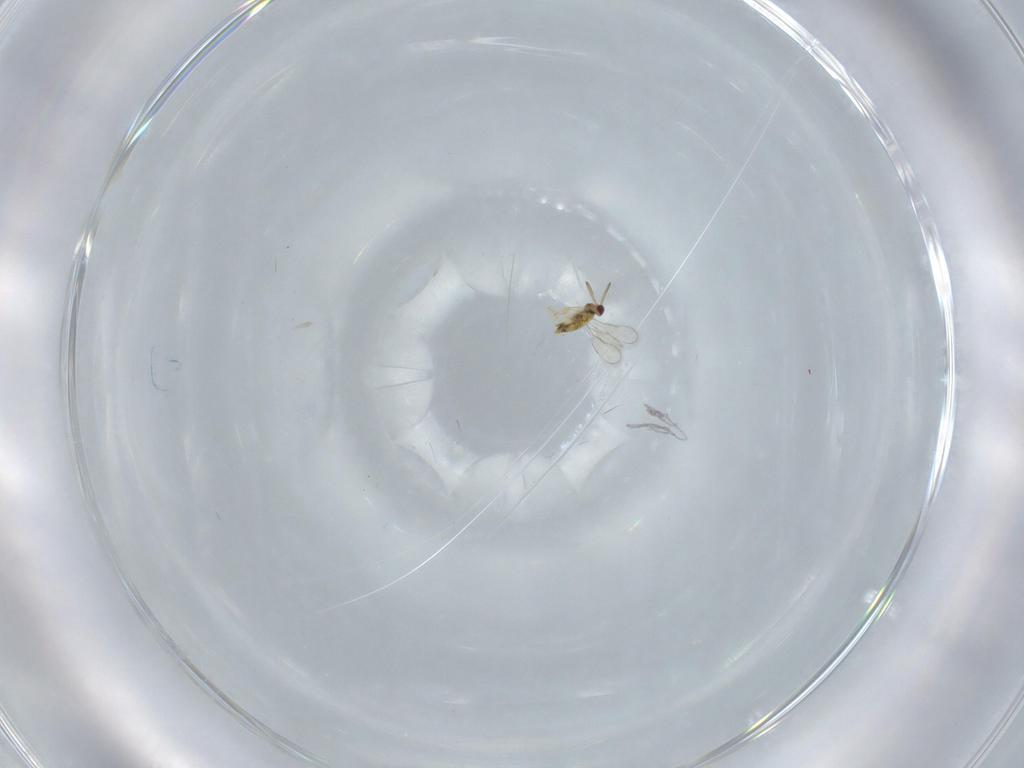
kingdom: Animalia
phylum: Arthropoda
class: Insecta
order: Hymenoptera
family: Aphelinidae
